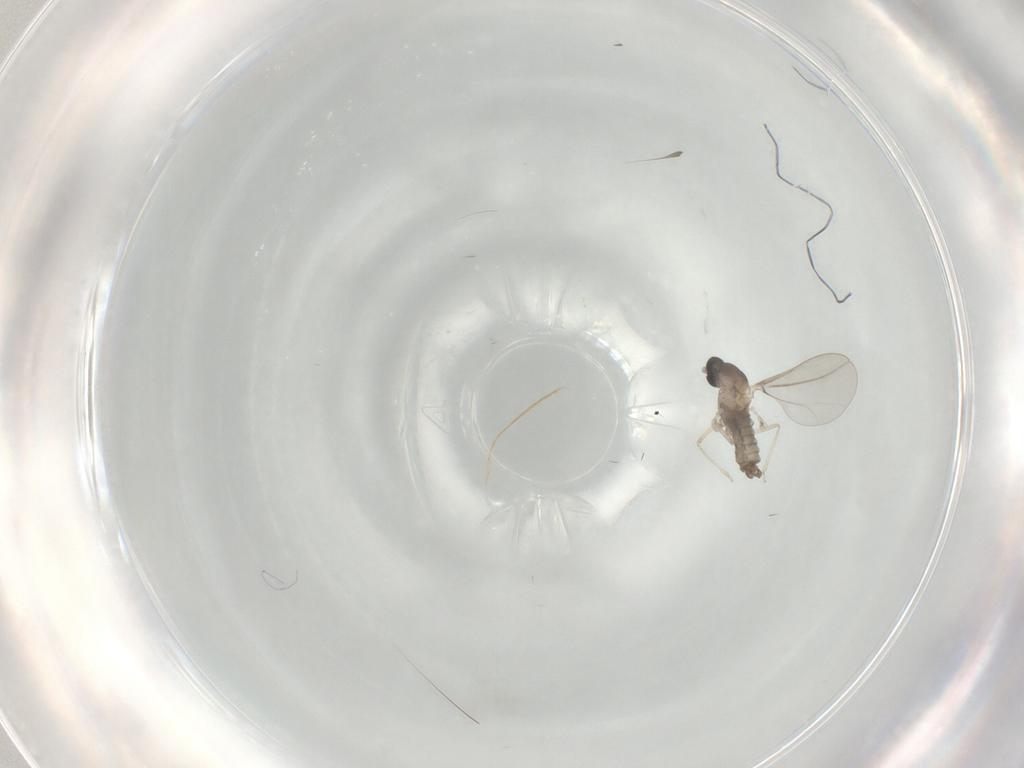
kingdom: Animalia
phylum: Arthropoda
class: Insecta
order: Diptera
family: Cecidomyiidae
